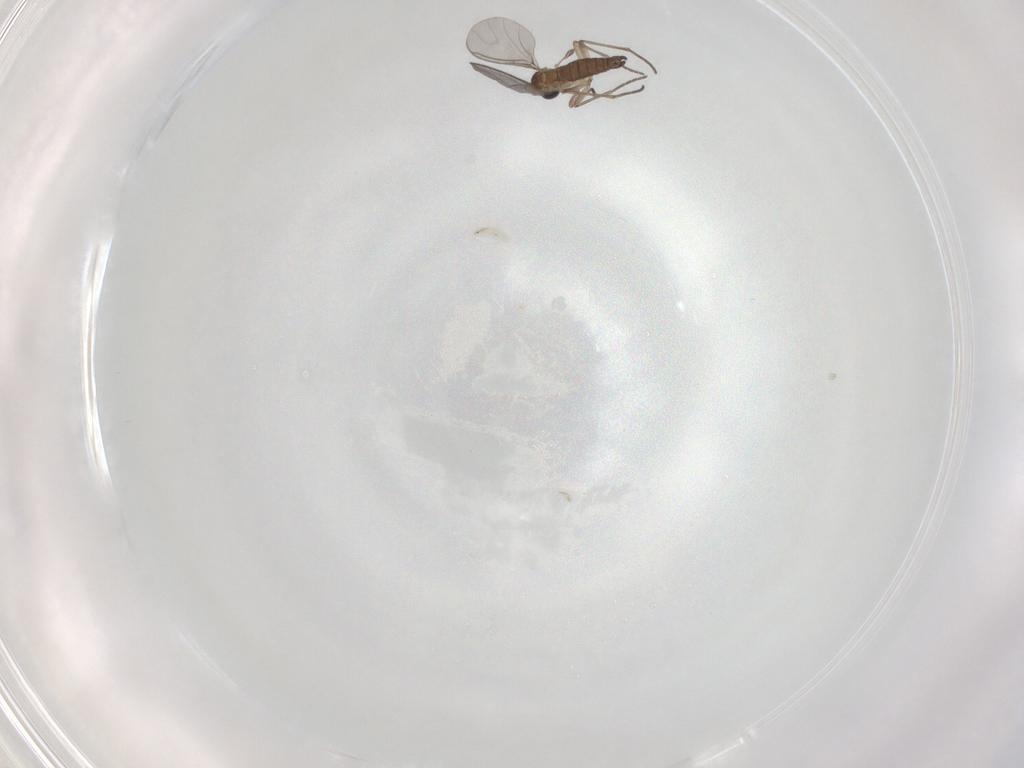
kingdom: Animalia
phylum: Arthropoda
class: Insecta
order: Diptera
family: Sciaridae
